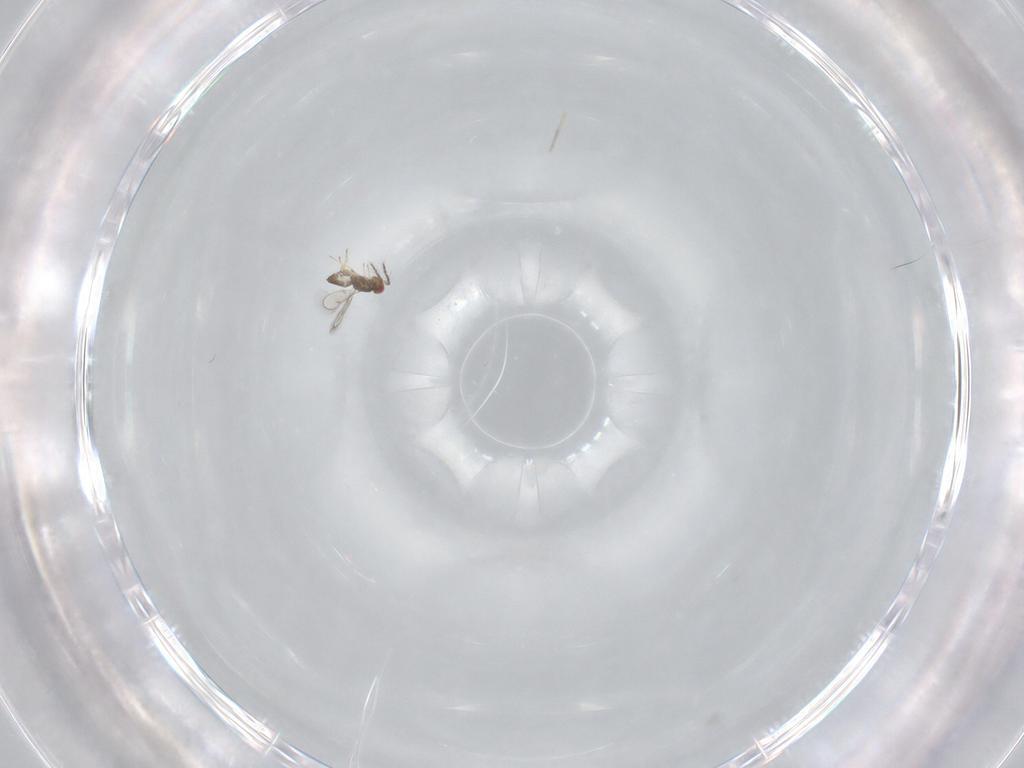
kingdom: Animalia
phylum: Arthropoda
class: Insecta
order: Hymenoptera
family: Eulophidae
